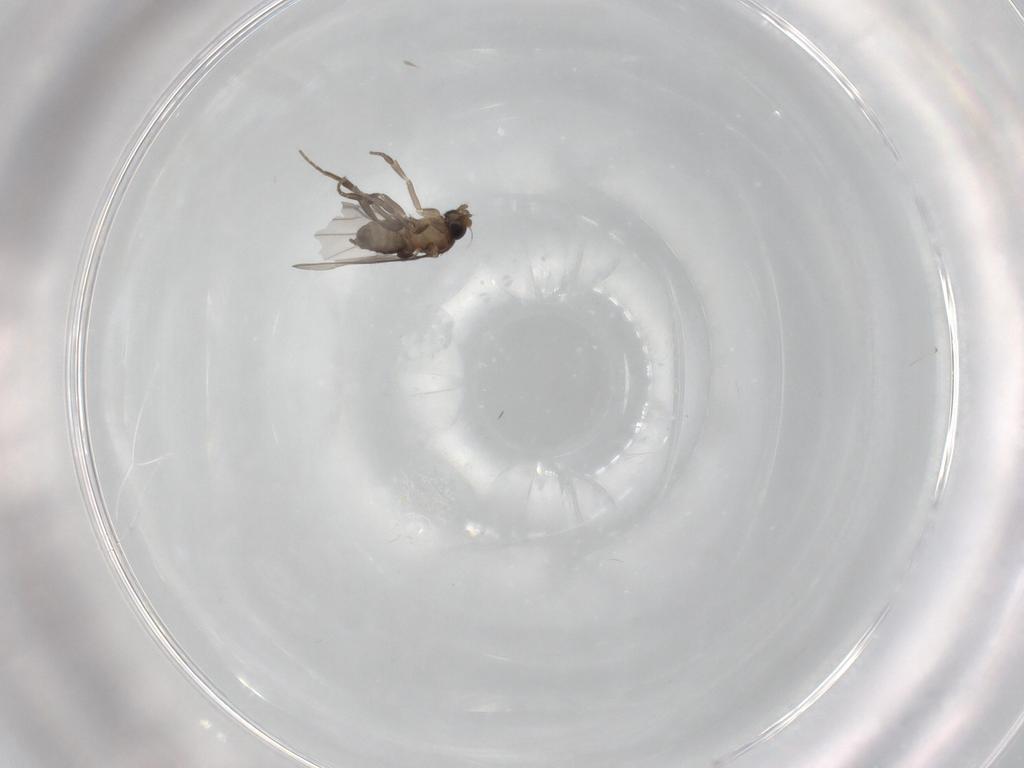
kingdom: Animalia
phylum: Arthropoda
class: Insecta
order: Diptera
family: Phoridae
